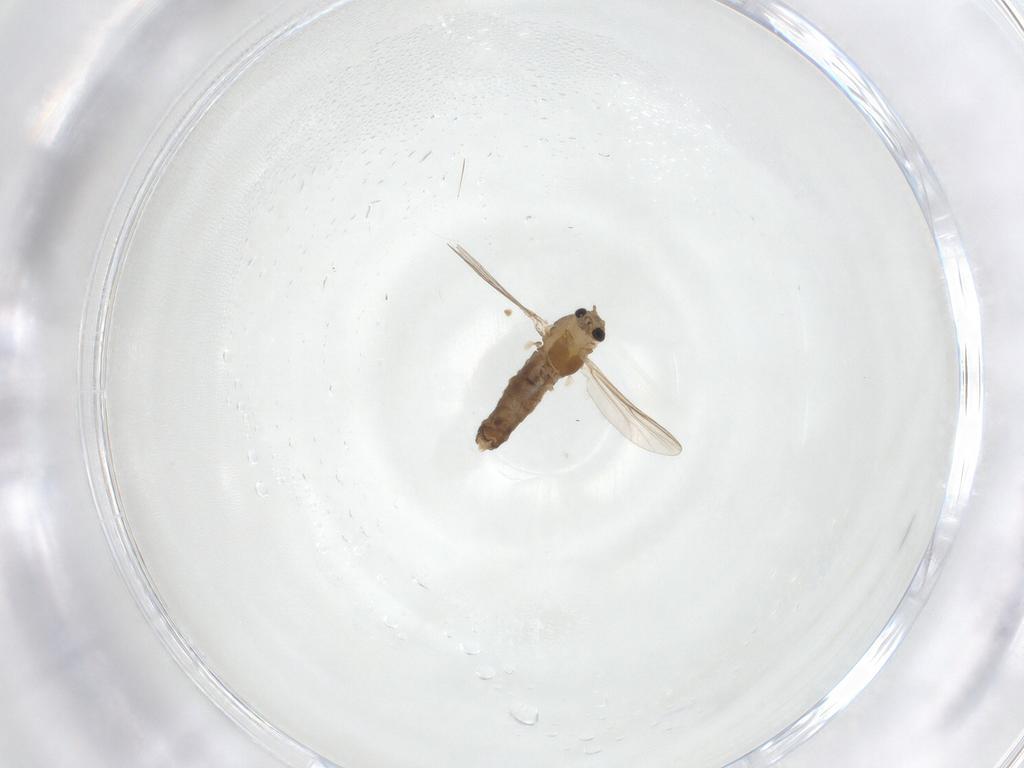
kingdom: Animalia
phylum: Arthropoda
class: Insecta
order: Diptera
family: Chironomidae
